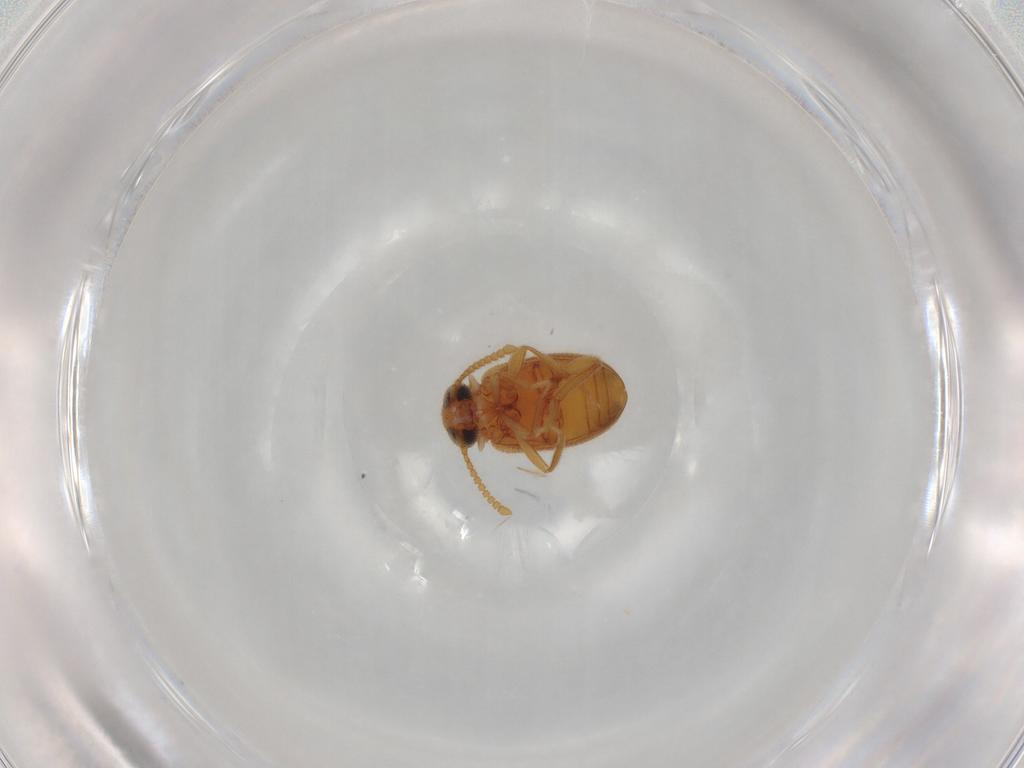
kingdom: Animalia
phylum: Arthropoda
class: Insecta
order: Coleoptera
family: Aderidae
